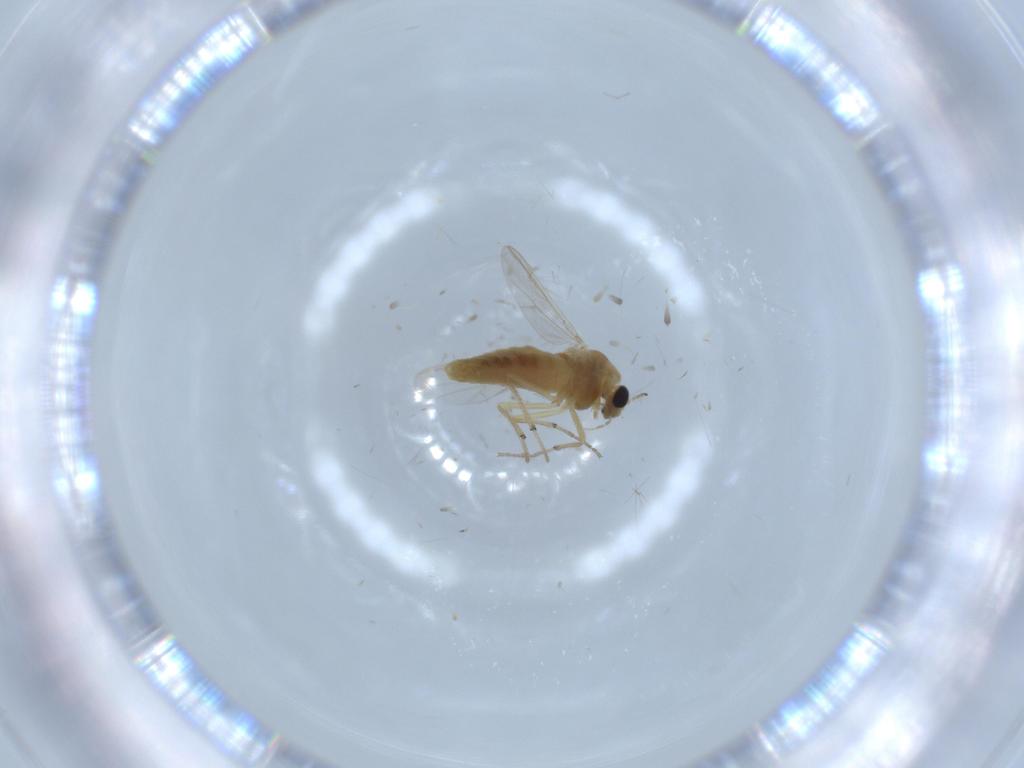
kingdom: Animalia
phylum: Arthropoda
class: Insecta
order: Diptera
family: Chironomidae
